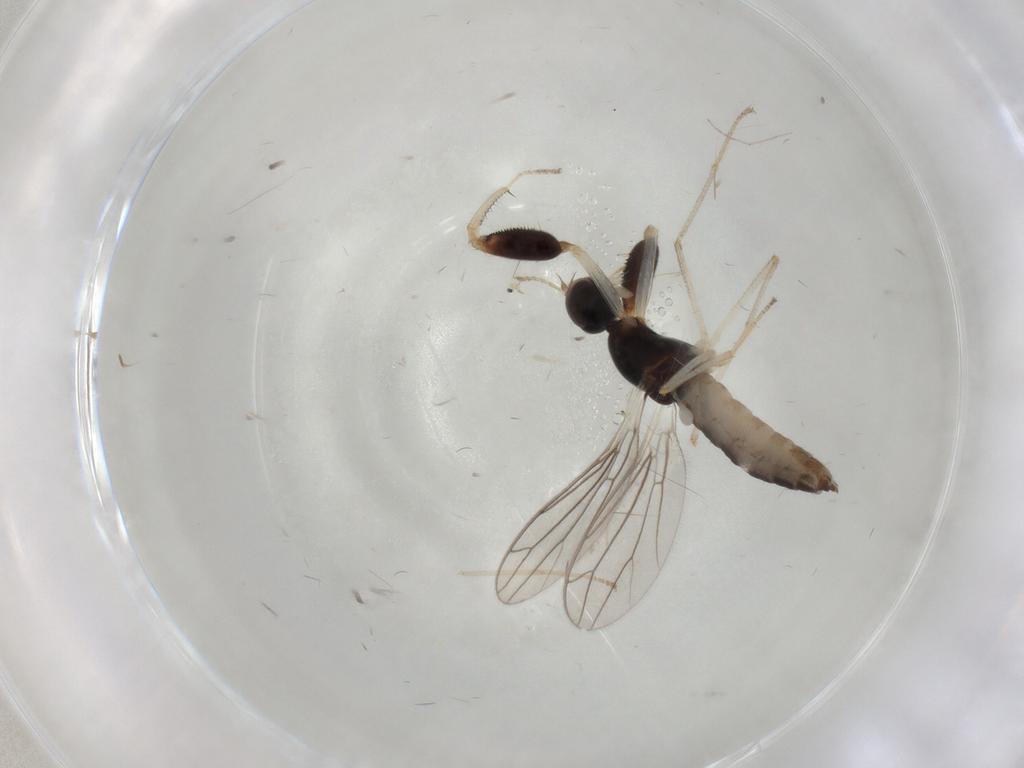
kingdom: Animalia
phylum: Arthropoda
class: Insecta
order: Diptera
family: Empididae
